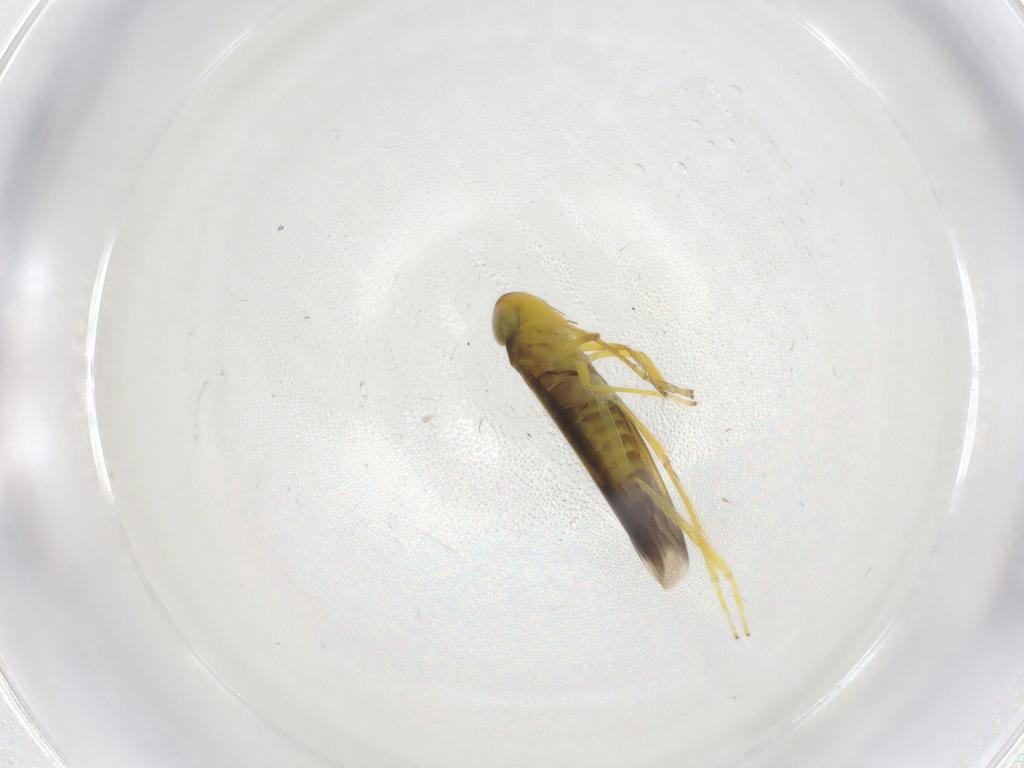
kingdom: Animalia
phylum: Arthropoda
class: Insecta
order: Hemiptera
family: Cicadellidae
